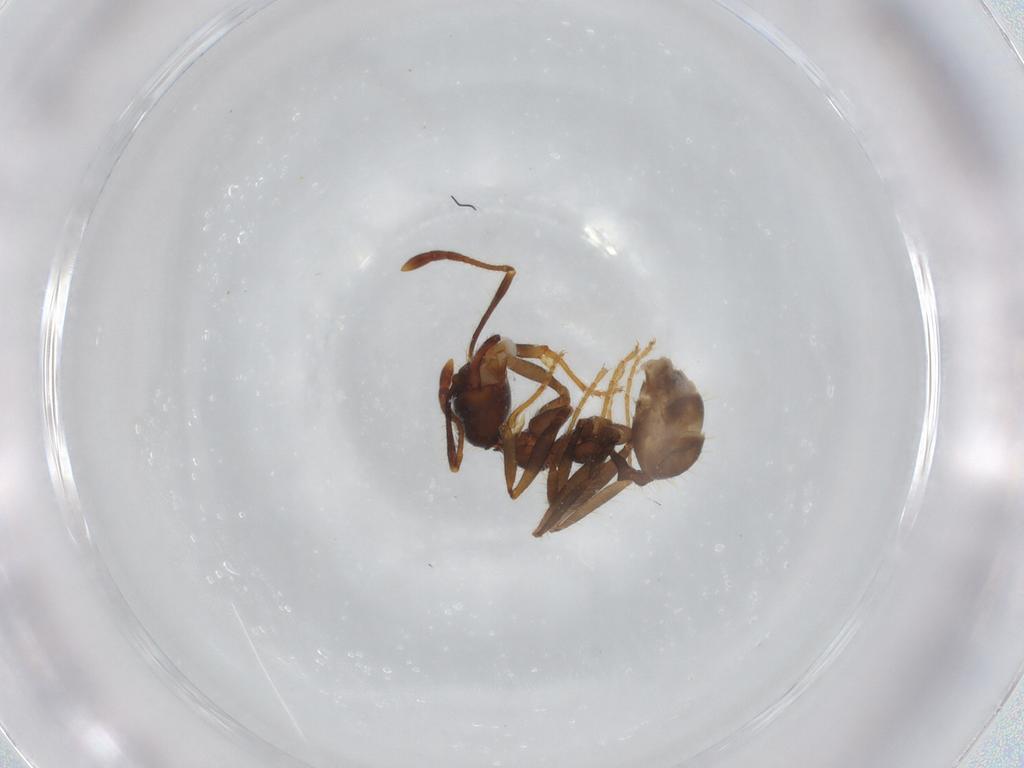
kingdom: Animalia
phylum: Arthropoda
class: Insecta
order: Hymenoptera
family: Formicidae
